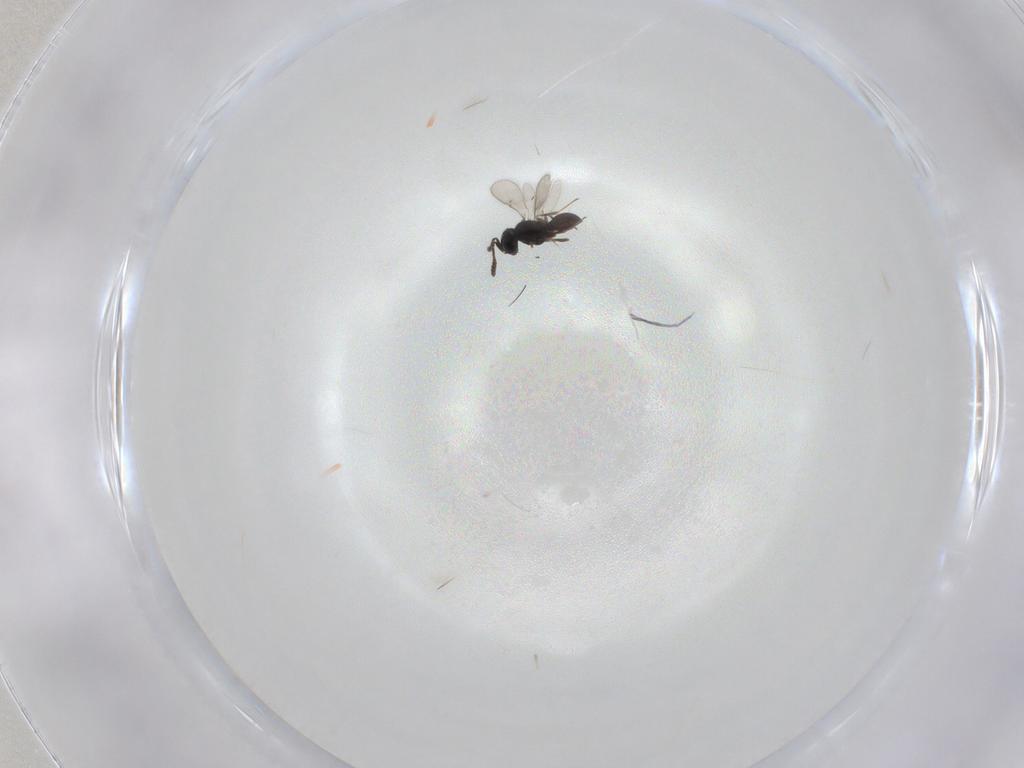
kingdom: Animalia
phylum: Arthropoda
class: Insecta
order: Hymenoptera
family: Scelionidae
